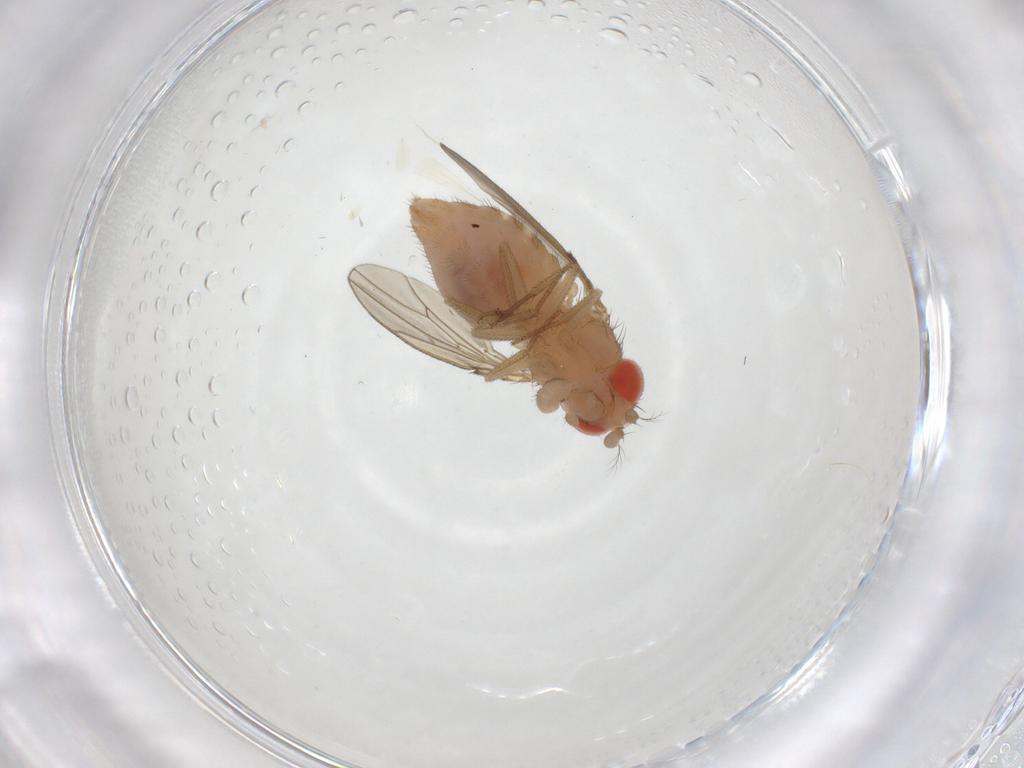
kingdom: Animalia
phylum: Arthropoda
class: Insecta
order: Diptera
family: Drosophilidae
